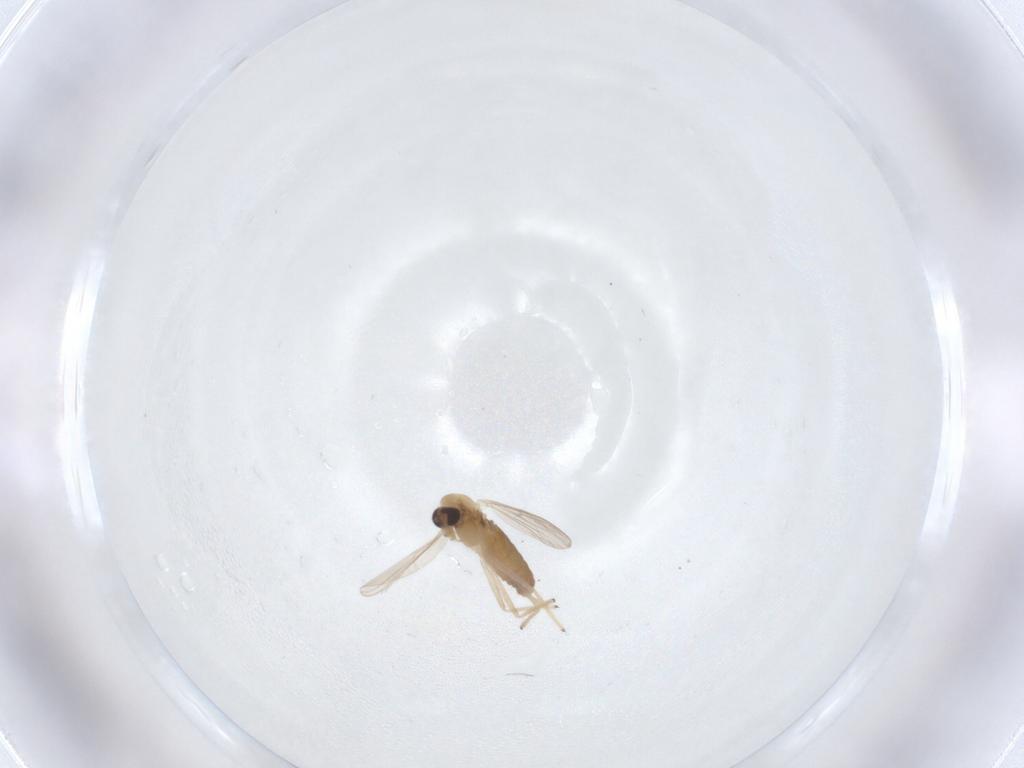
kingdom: Animalia
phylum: Arthropoda
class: Insecta
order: Diptera
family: Chironomidae
